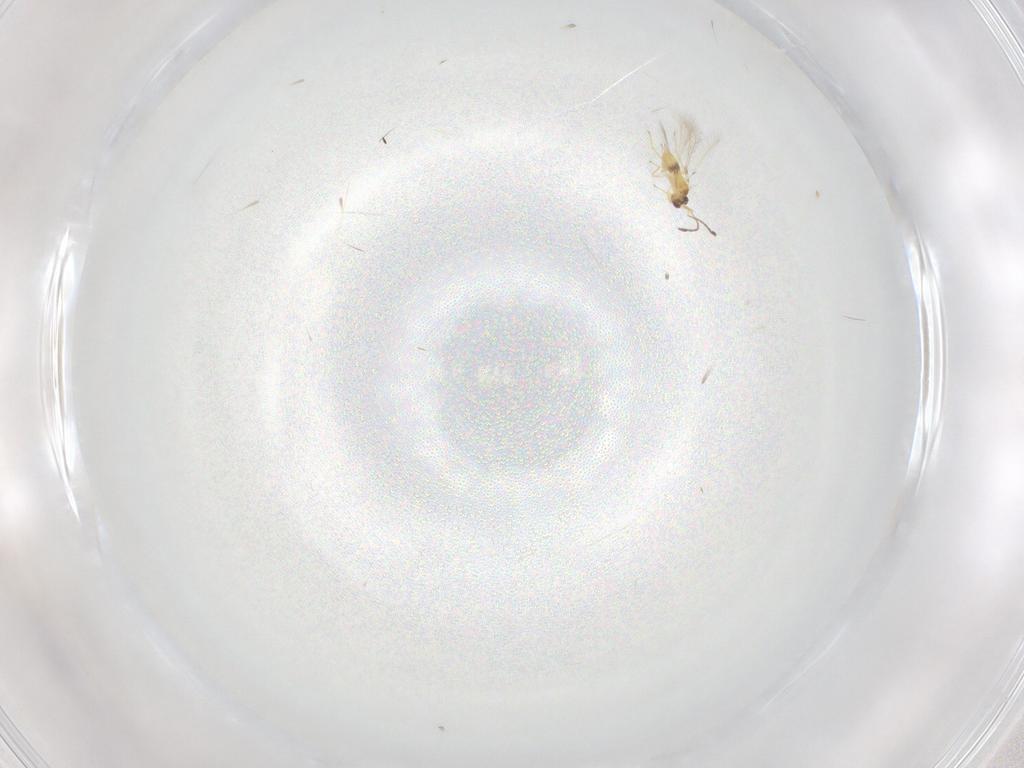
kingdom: Animalia
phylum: Arthropoda
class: Insecta
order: Hymenoptera
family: Mymaridae
